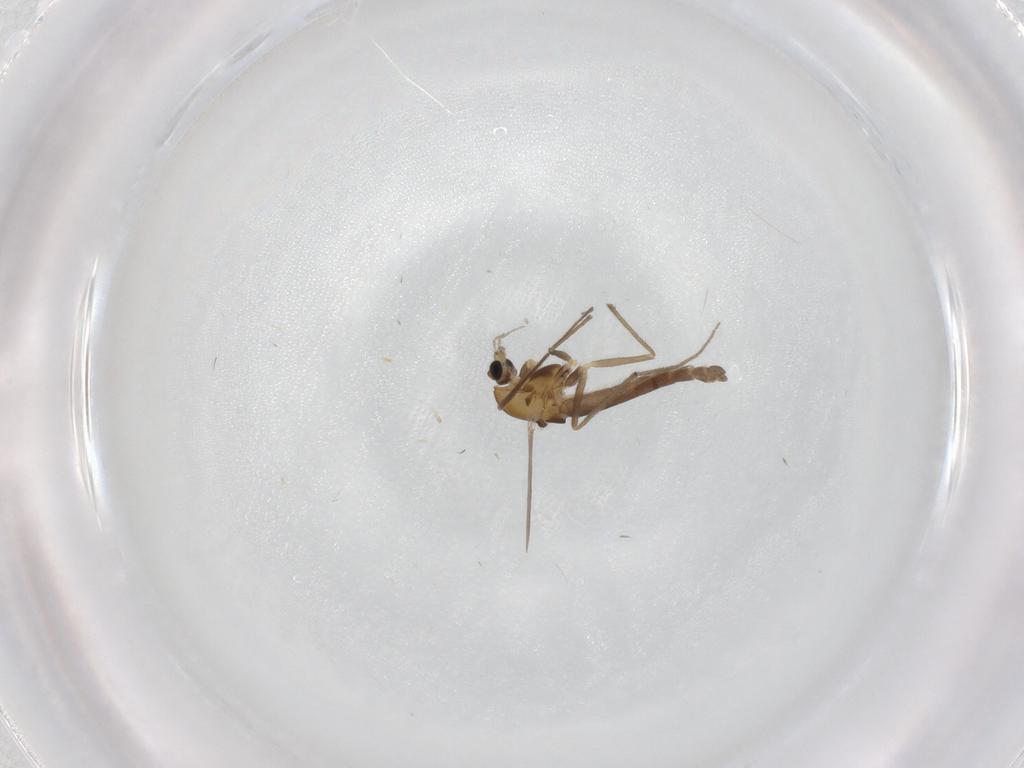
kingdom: Animalia
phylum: Arthropoda
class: Insecta
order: Diptera
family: Chironomidae
